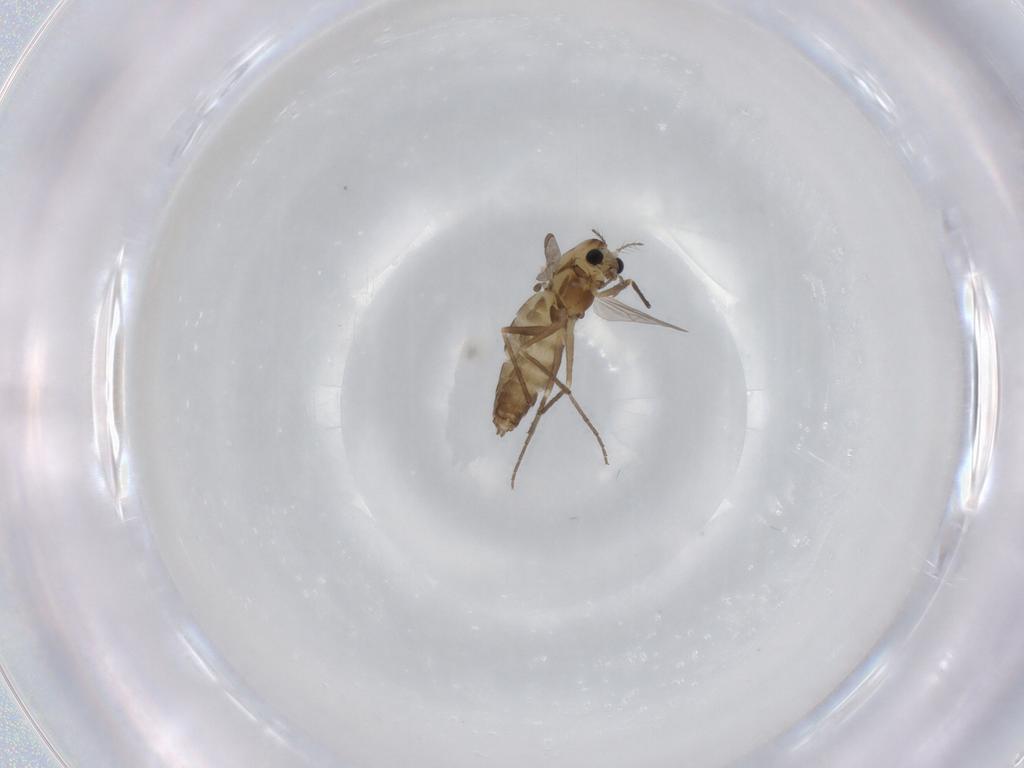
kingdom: Animalia
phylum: Arthropoda
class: Insecta
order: Diptera
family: Chironomidae
